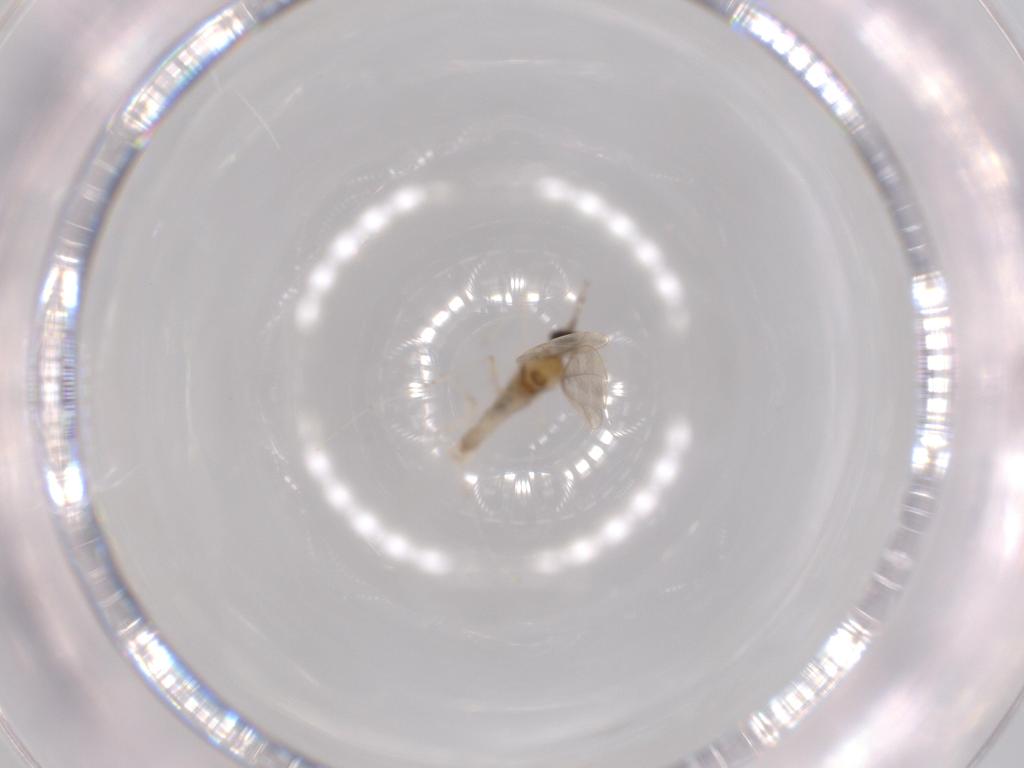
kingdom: Animalia
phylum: Arthropoda
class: Insecta
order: Diptera
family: Cecidomyiidae
